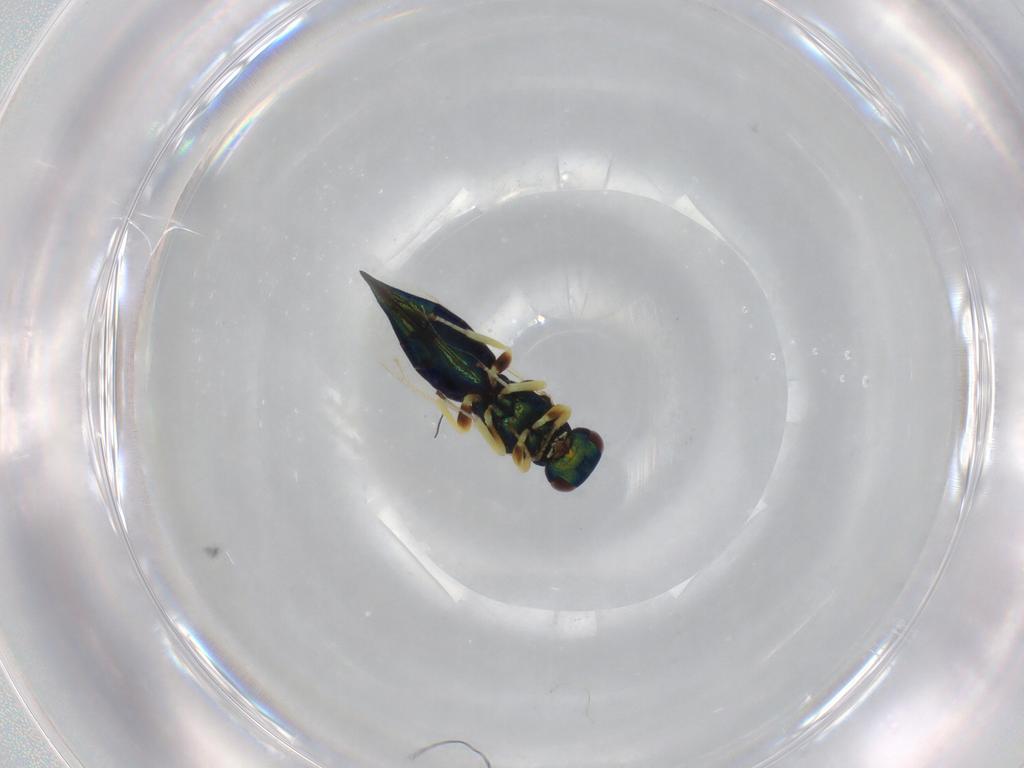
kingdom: Animalia
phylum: Arthropoda
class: Insecta
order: Hymenoptera
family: Pteromalidae
